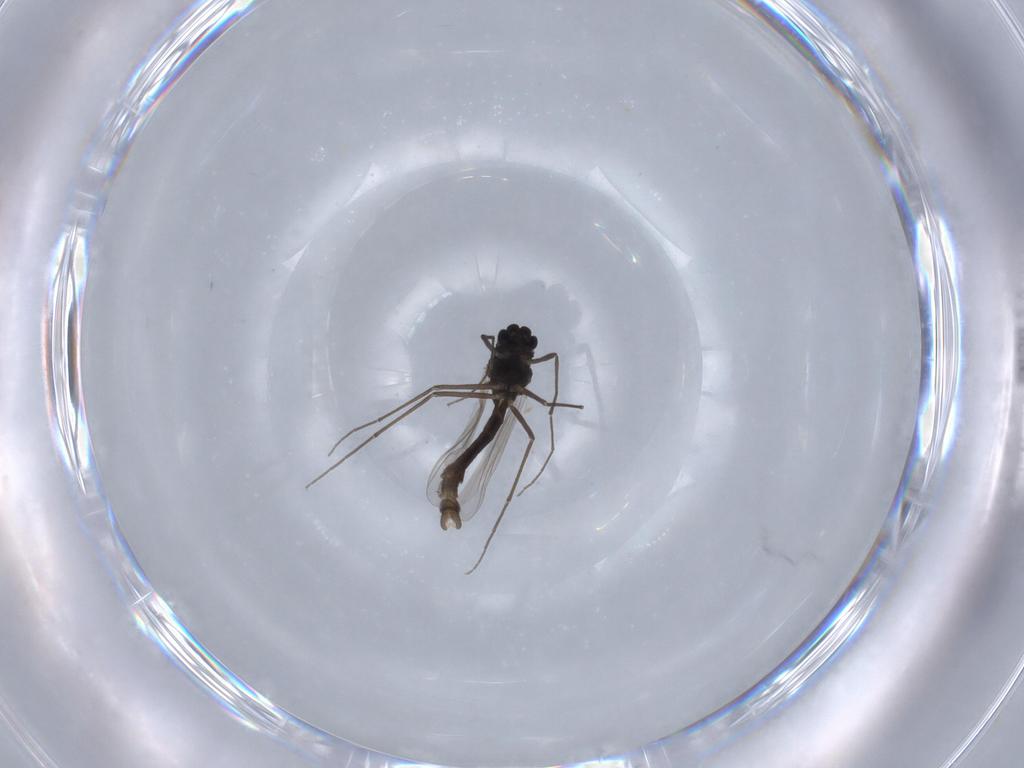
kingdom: Animalia
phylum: Arthropoda
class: Insecta
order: Diptera
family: Chironomidae
